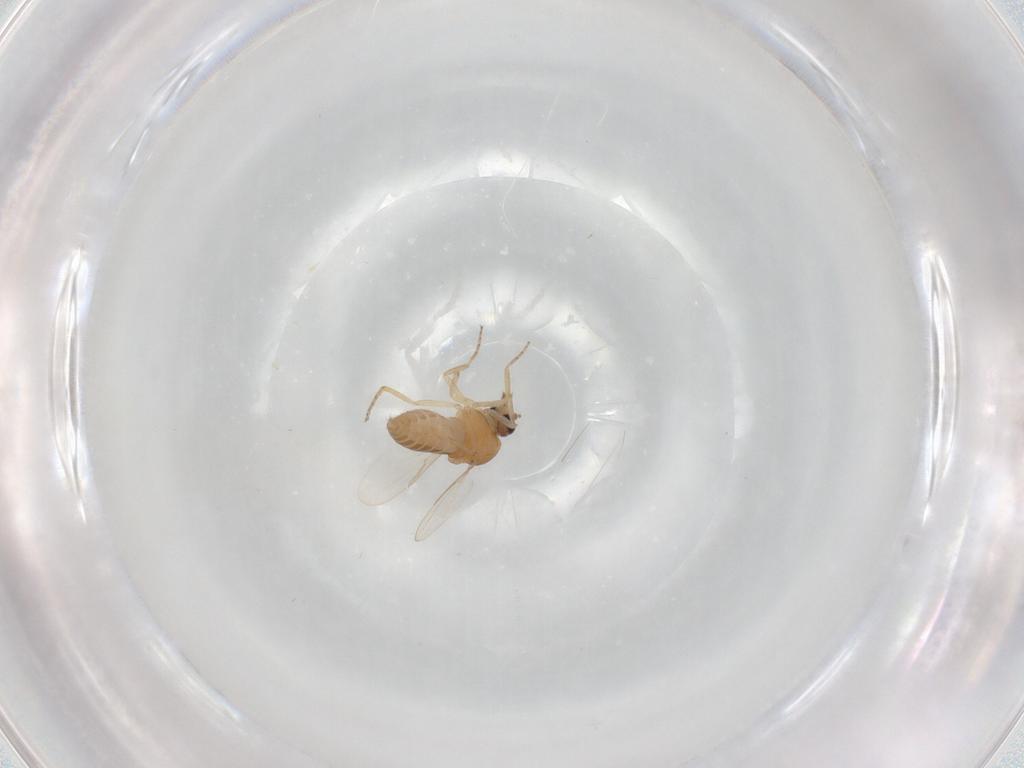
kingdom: Animalia
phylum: Arthropoda
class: Insecta
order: Diptera
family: Ceratopogonidae
